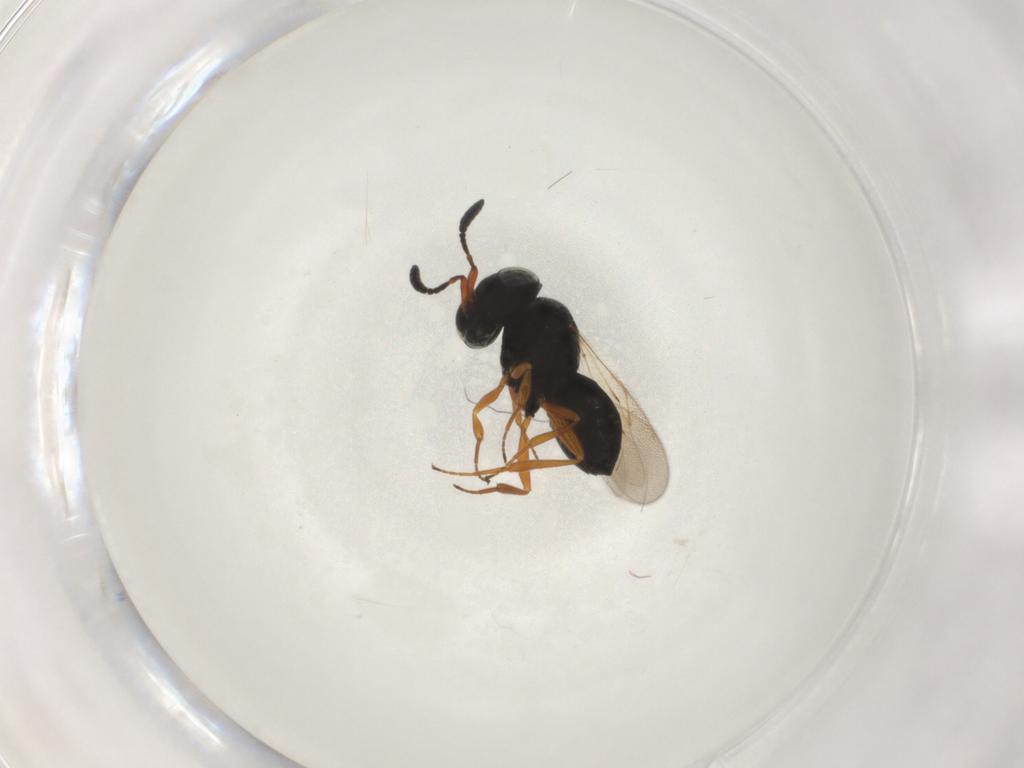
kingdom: Animalia
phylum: Arthropoda
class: Insecta
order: Hymenoptera
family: Scelionidae
